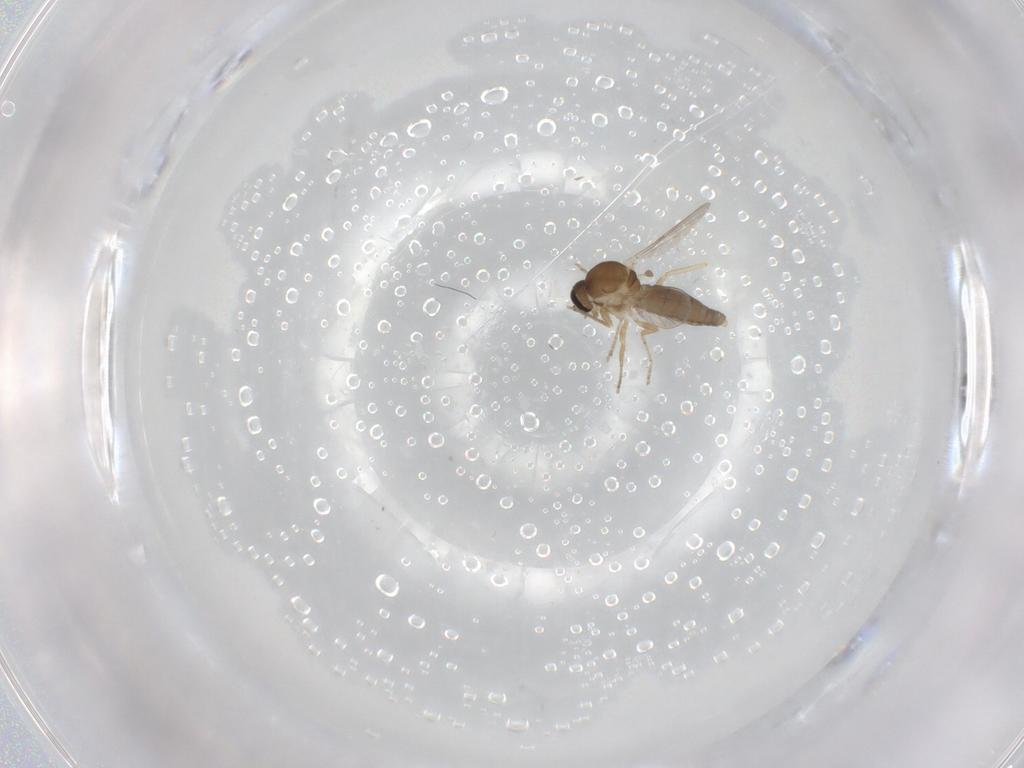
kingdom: Animalia
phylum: Arthropoda
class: Insecta
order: Diptera
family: Ceratopogonidae
